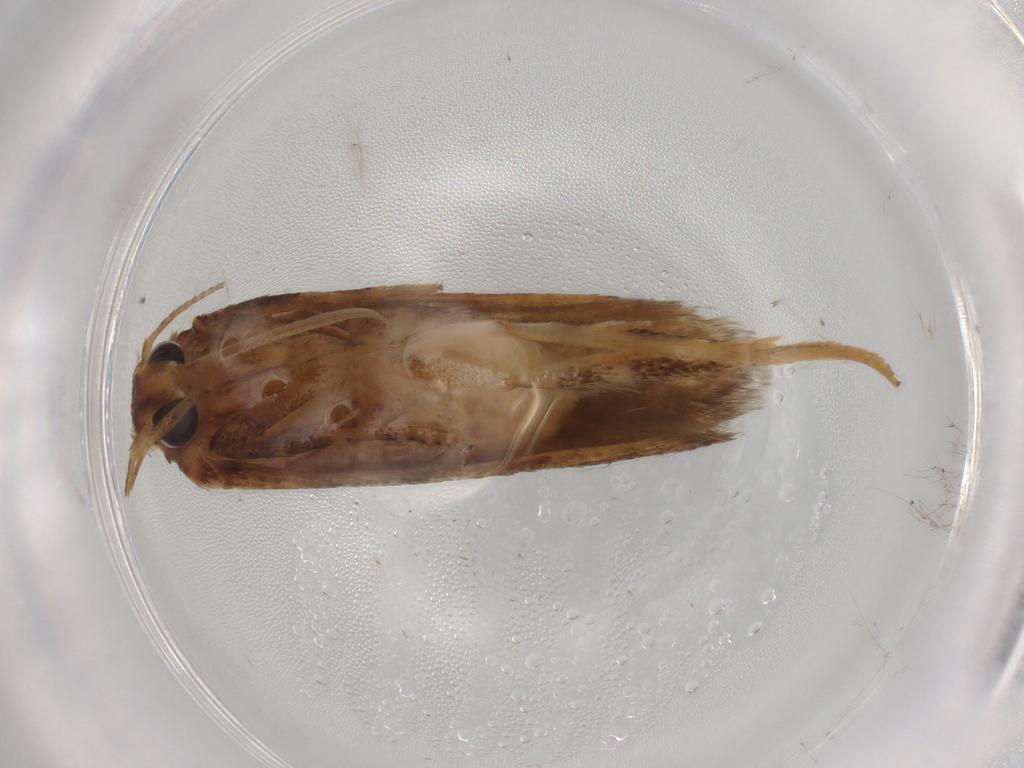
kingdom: Animalia
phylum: Arthropoda
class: Insecta
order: Lepidoptera
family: Blastobasidae
